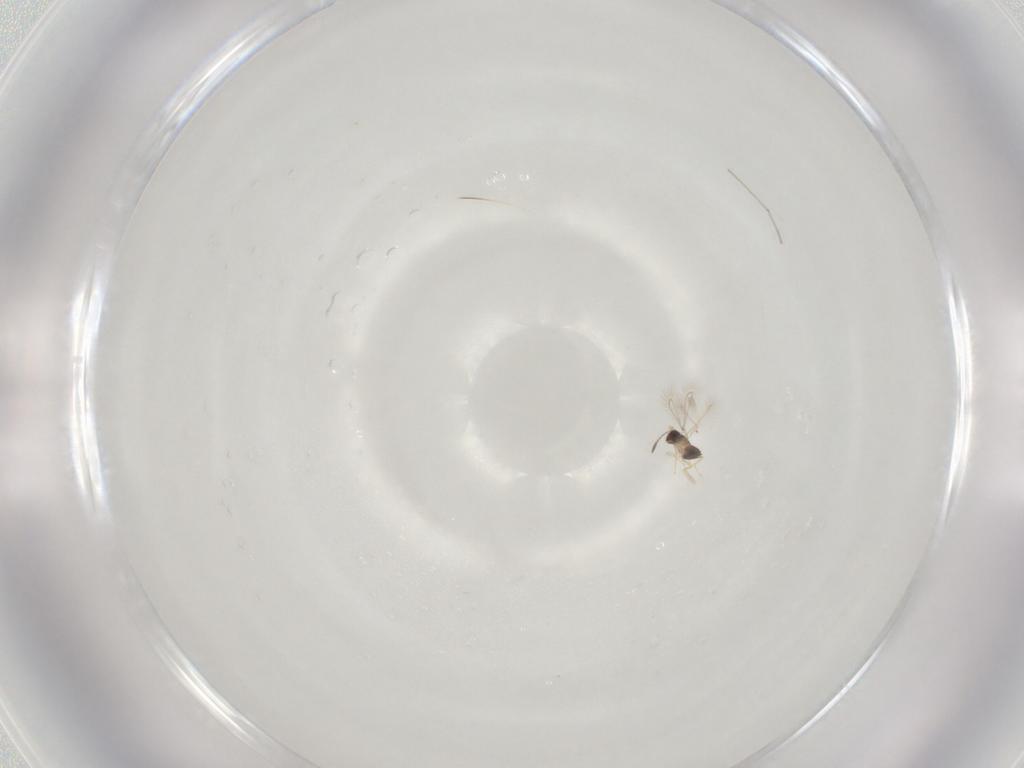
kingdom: Animalia
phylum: Arthropoda
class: Insecta
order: Diptera
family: Cecidomyiidae
